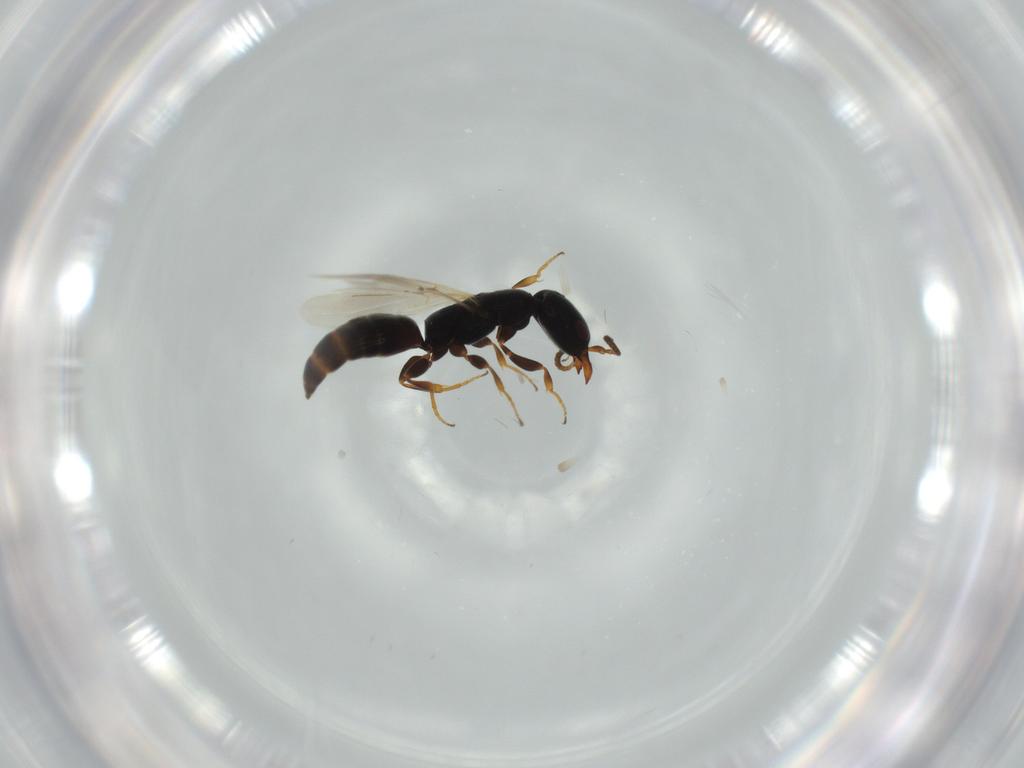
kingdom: Animalia
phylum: Arthropoda
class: Insecta
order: Hymenoptera
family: Bethylidae
